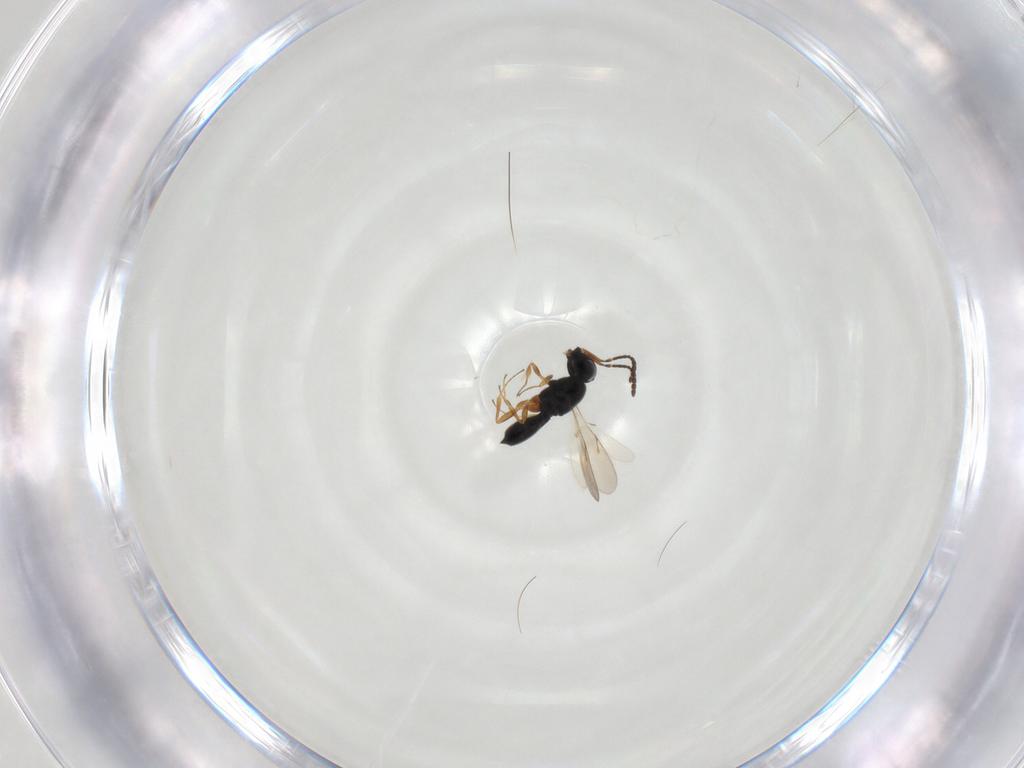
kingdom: Animalia
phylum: Arthropoda
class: Insecta
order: Hymenoptera
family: Scelionidae
